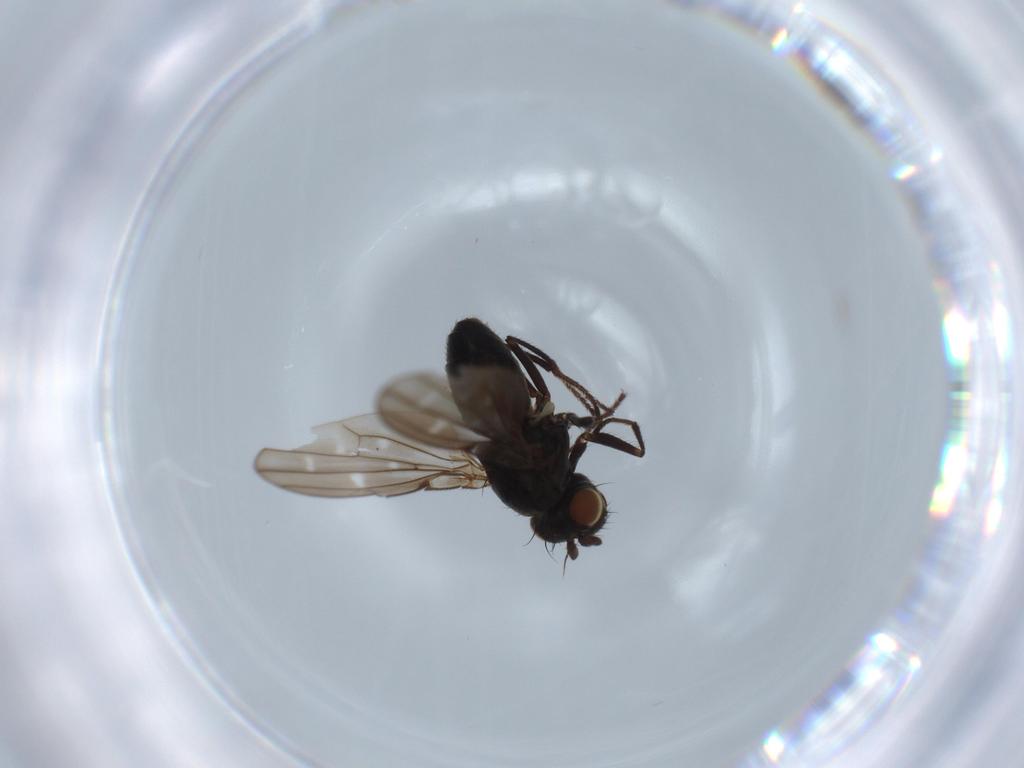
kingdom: Animalia
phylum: Arthropoda
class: Insecta
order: Diptera
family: Ephydridae
